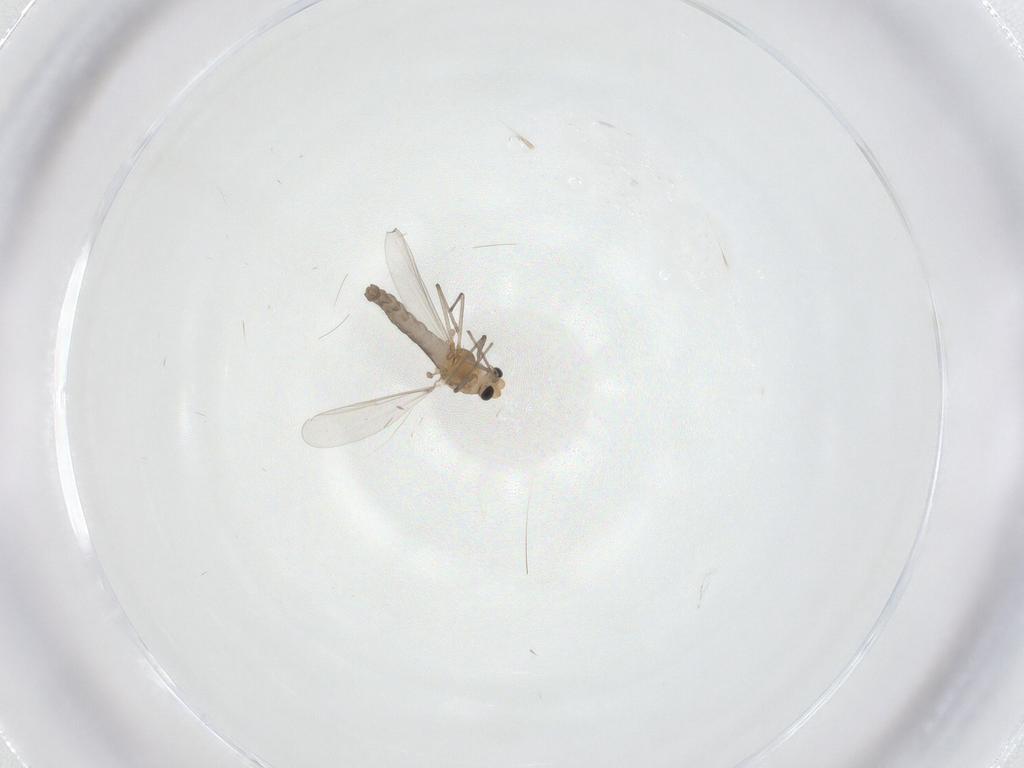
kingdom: Animalia
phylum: Arthropoda
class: Insecta
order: Diptera
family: Chironomidae
